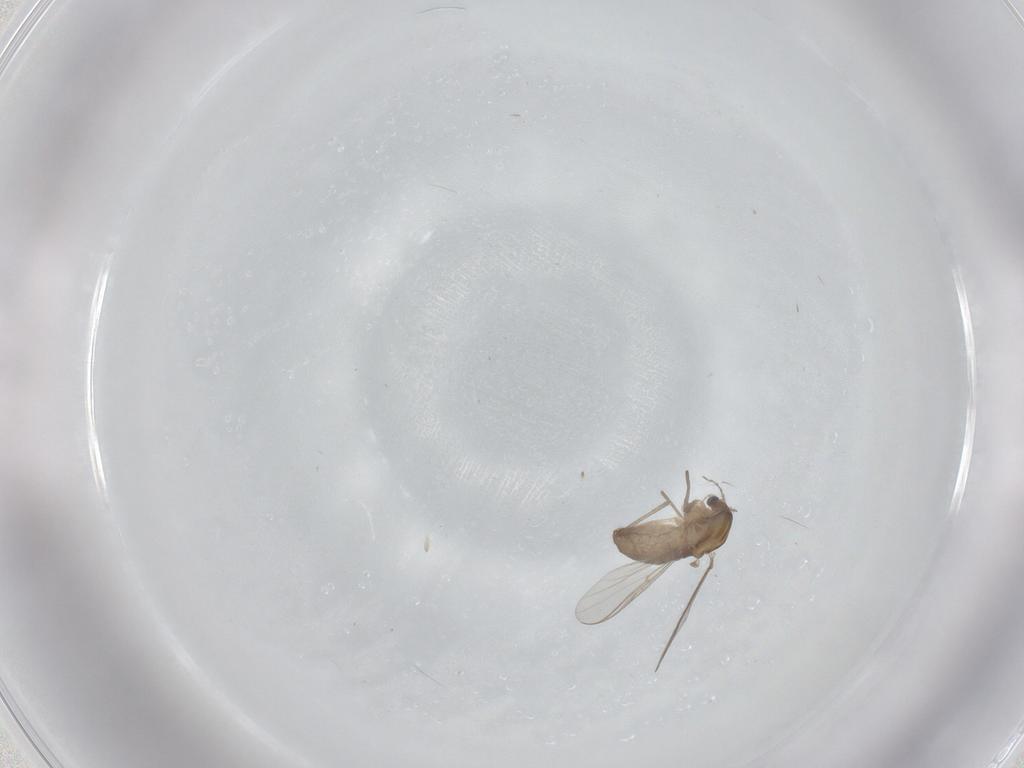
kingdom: Animalia
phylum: Arthropoda
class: Insecta
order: Diptera
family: Chironomidae
